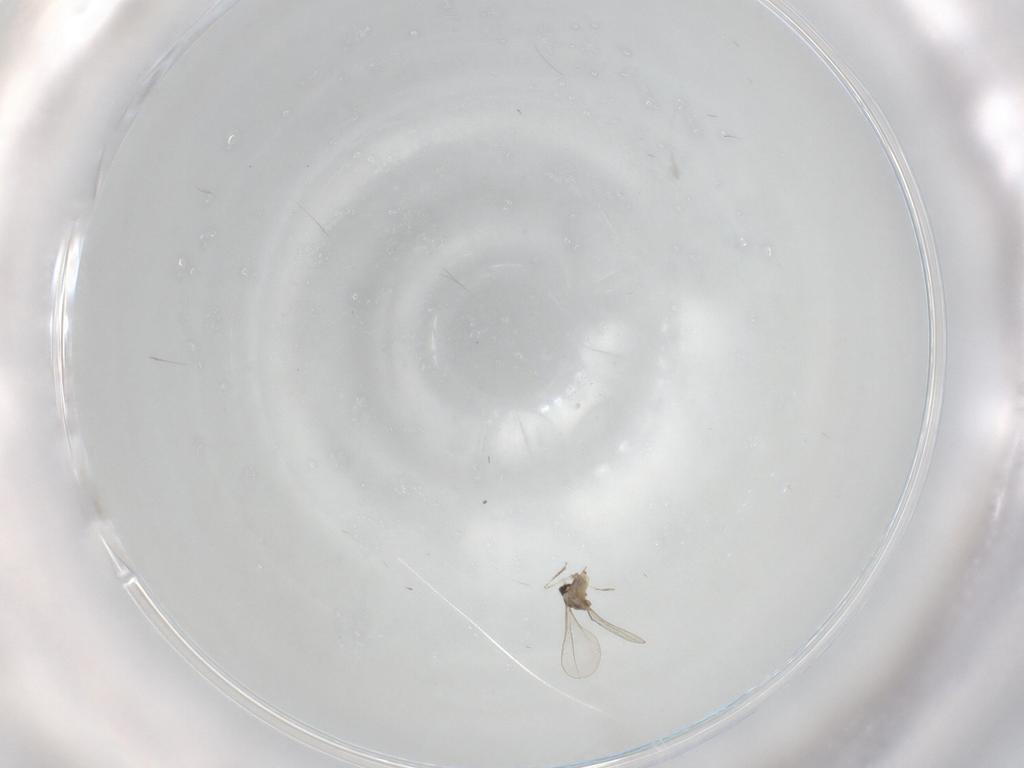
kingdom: Animalia
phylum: Arthropoda
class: Insecta
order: Diptera
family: Cecidomyiidae
